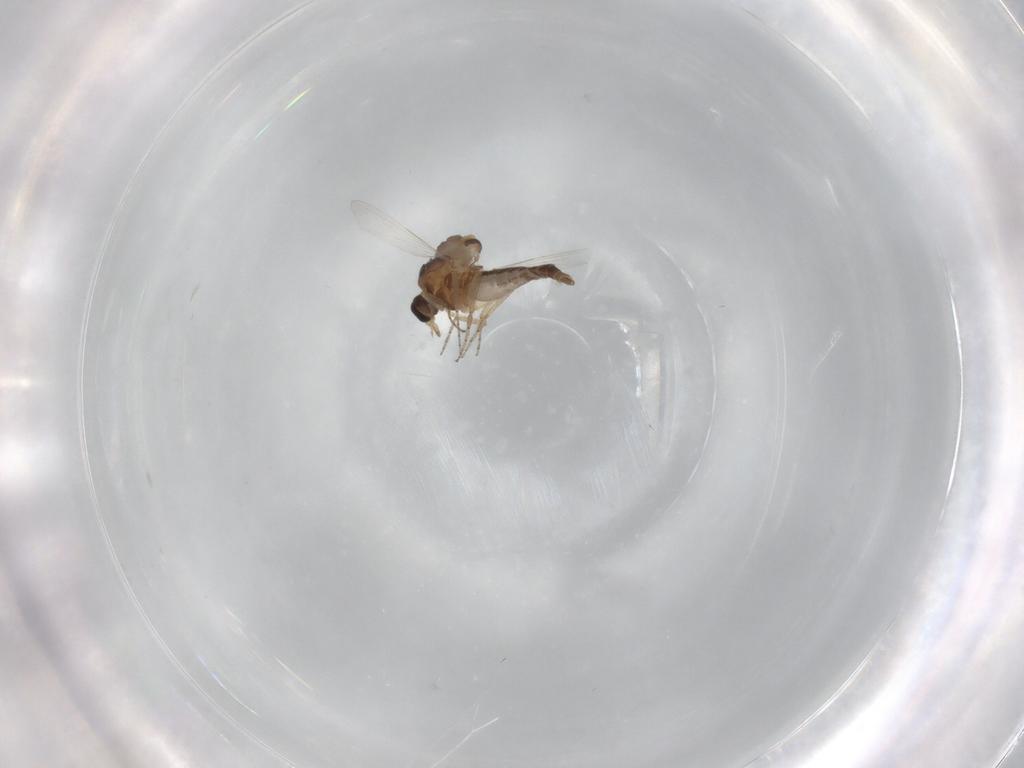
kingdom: Animalia
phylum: Arthropoda
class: Insecta
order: Diptera
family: Ceratopogonidae
